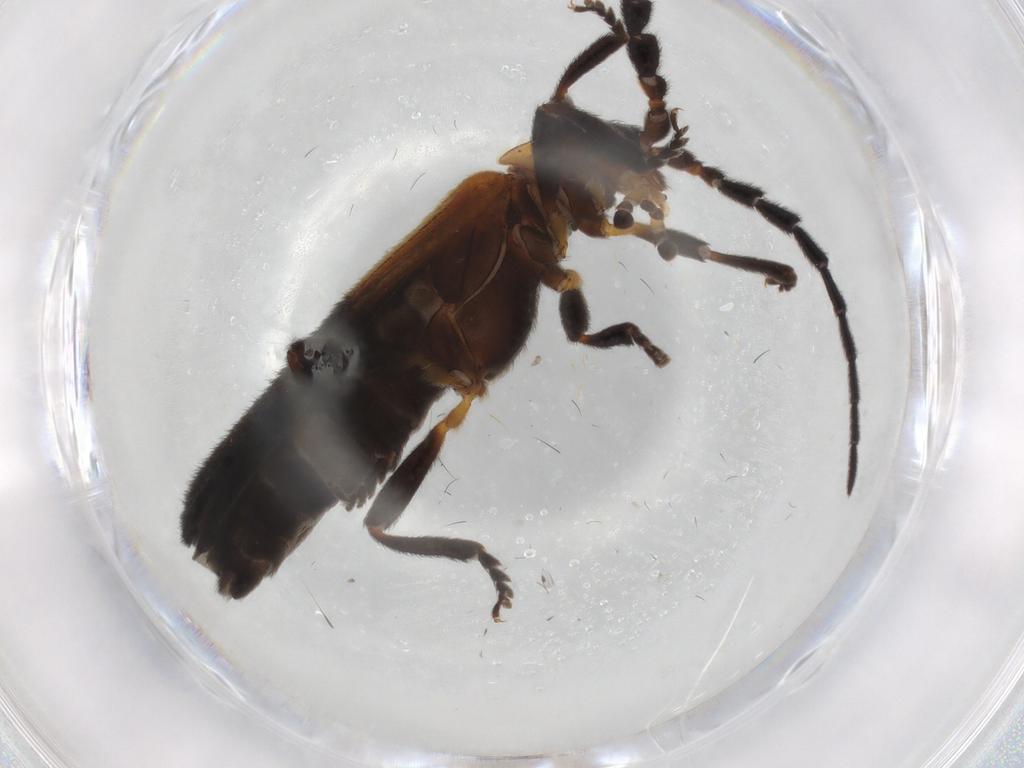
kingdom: Animalia
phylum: Arthropoda
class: Insecta
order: Coleoptera
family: Lycidae
